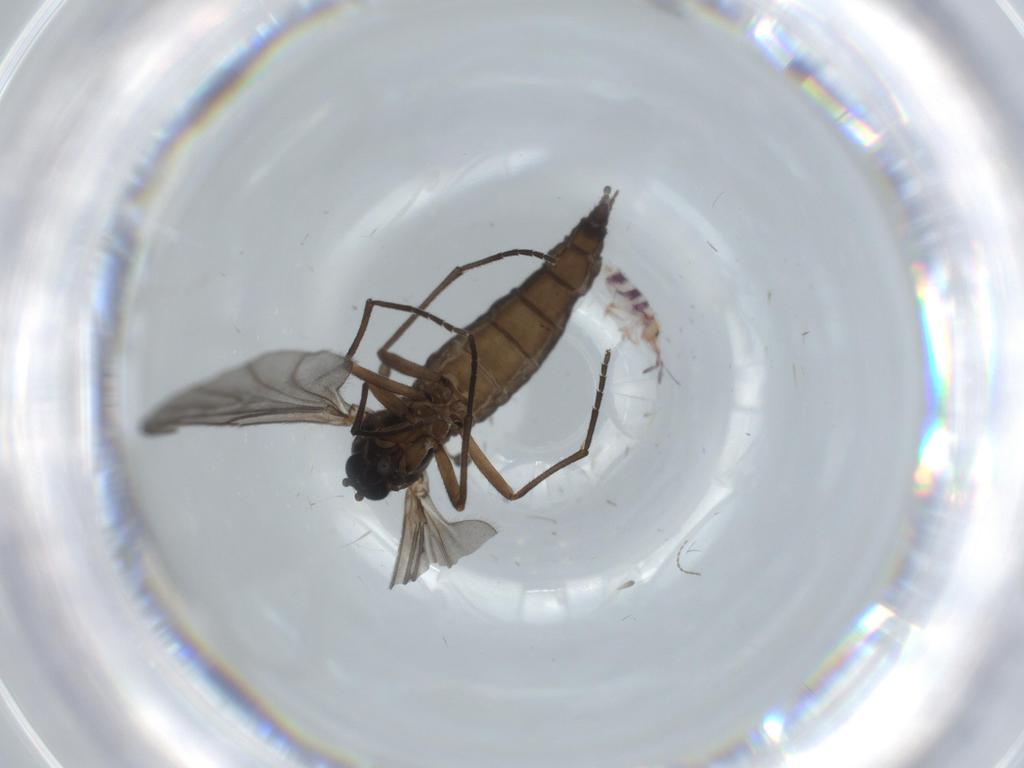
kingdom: Animalia
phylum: Arthropoda
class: Collembola
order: Entomobryomorpha
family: Entomobryidae
